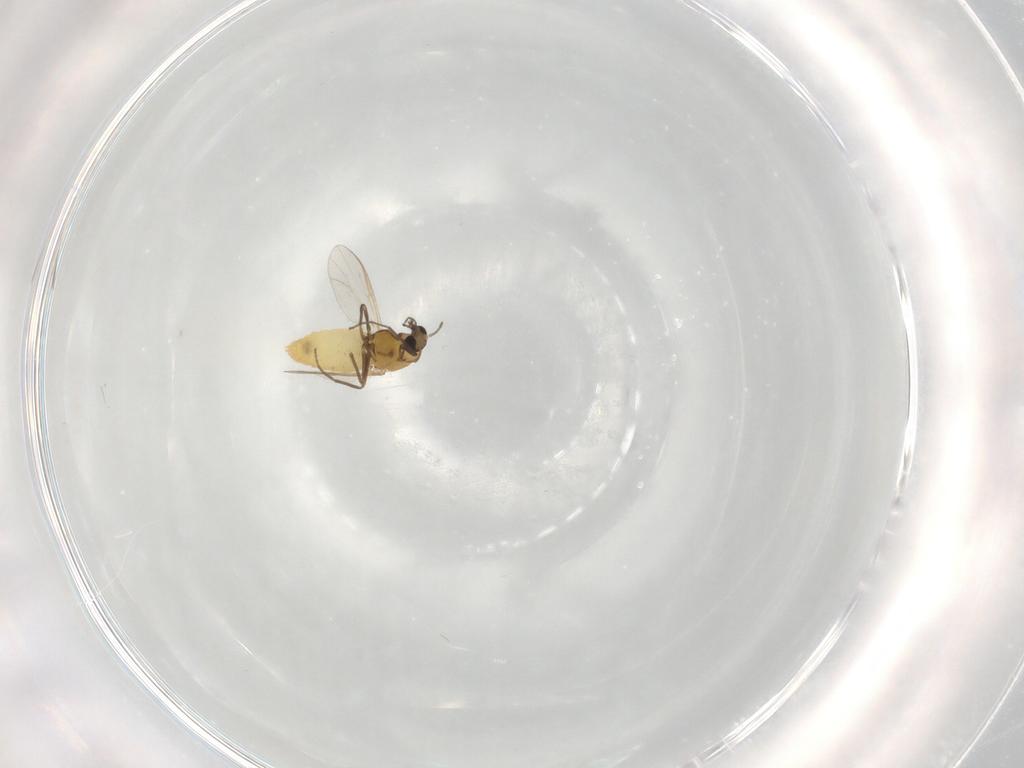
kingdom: Animalia
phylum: Arthropoda
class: Insecta
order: Diptera
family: Chironomidae
